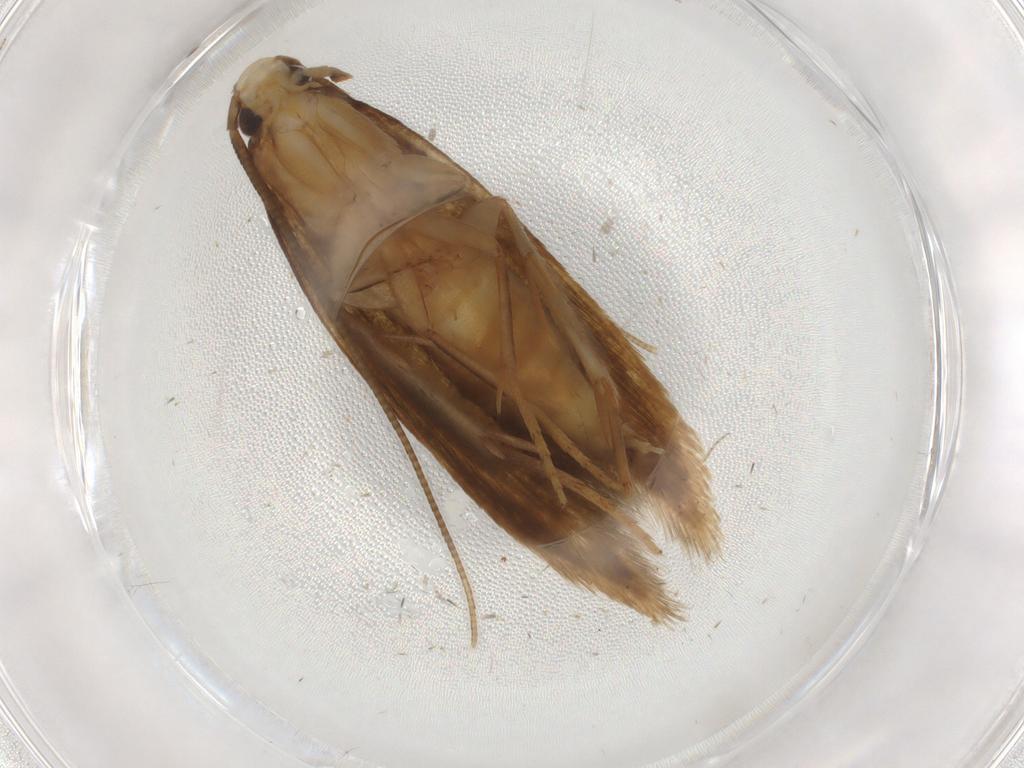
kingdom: Animalia
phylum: Arthropoda
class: Insecta
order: Lepidoptera
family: Tineidae
